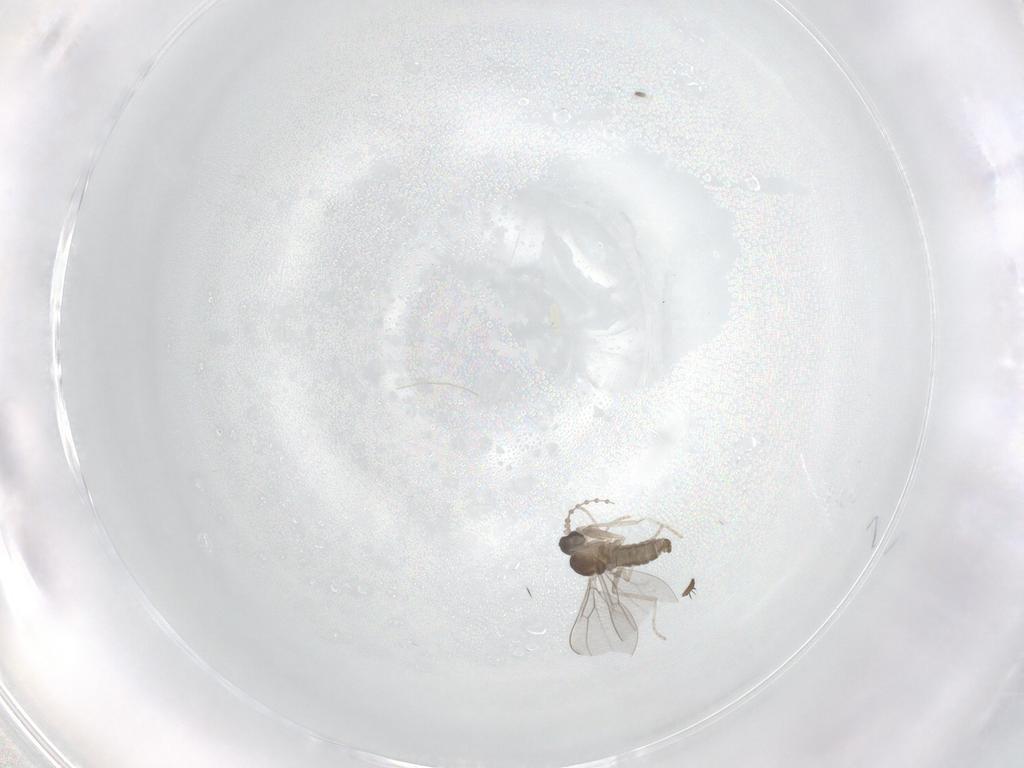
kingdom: Animalia
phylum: Arthropoda
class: Insecta
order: Diptera
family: Cecidomyiidae
